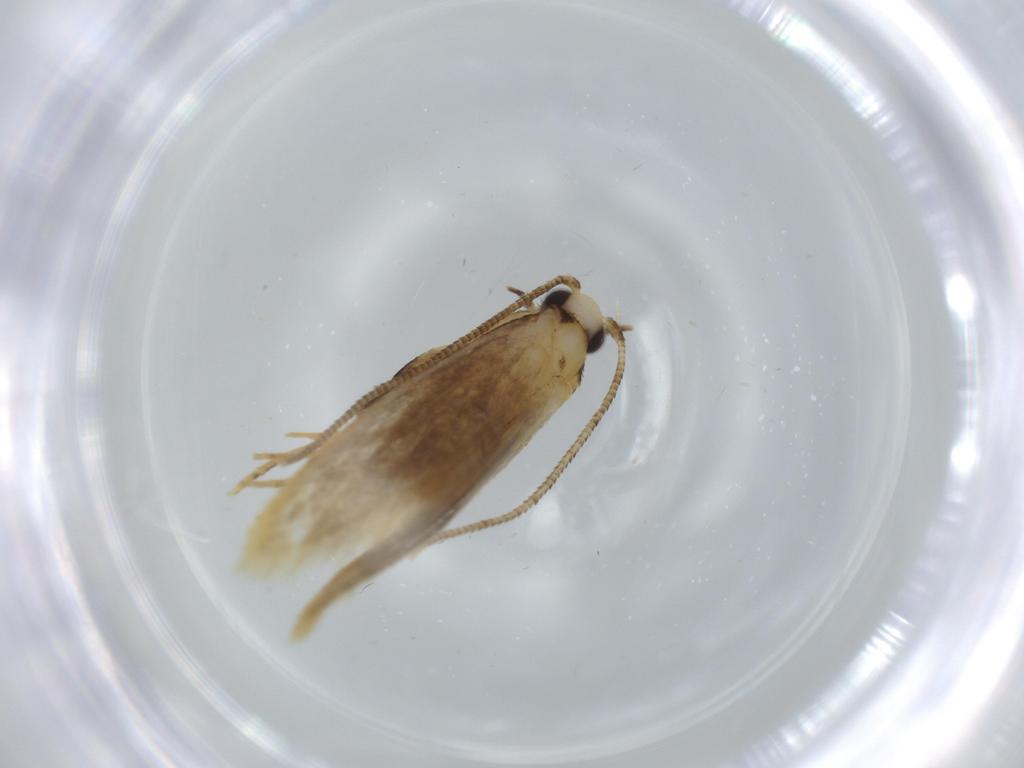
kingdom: Animalia
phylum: Arthropoda
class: Insecta
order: Lepidoptera
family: Tineidae
